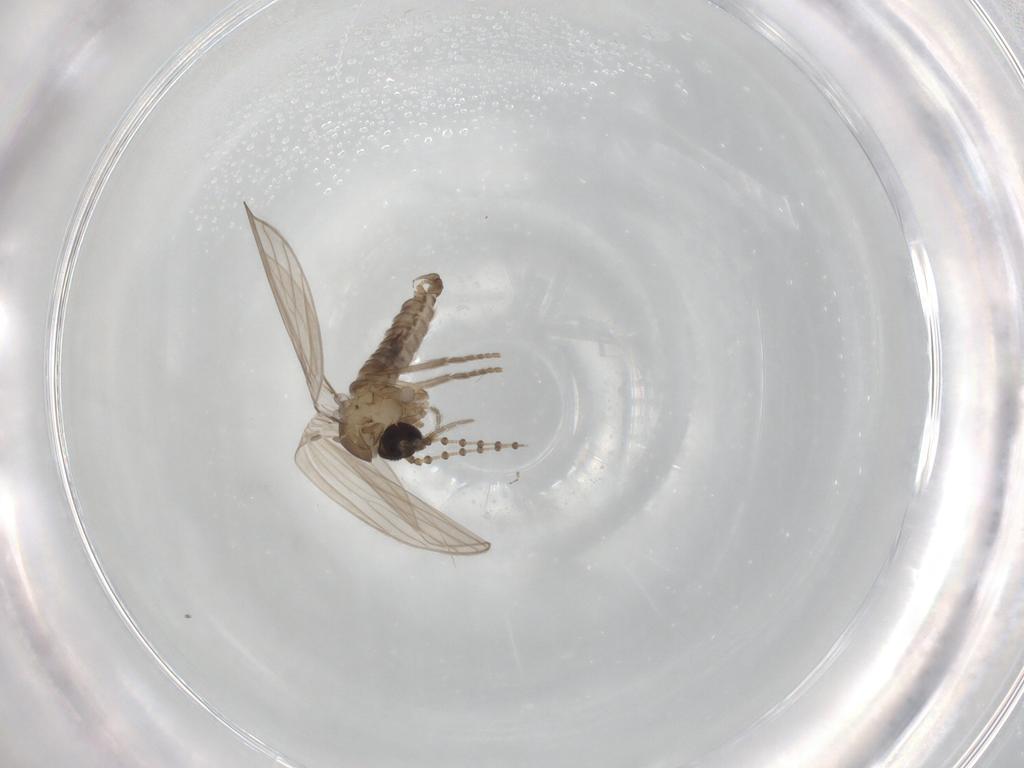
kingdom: Animalia
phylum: Arthropoda
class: Insecta
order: Diptera
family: Psychodidae
